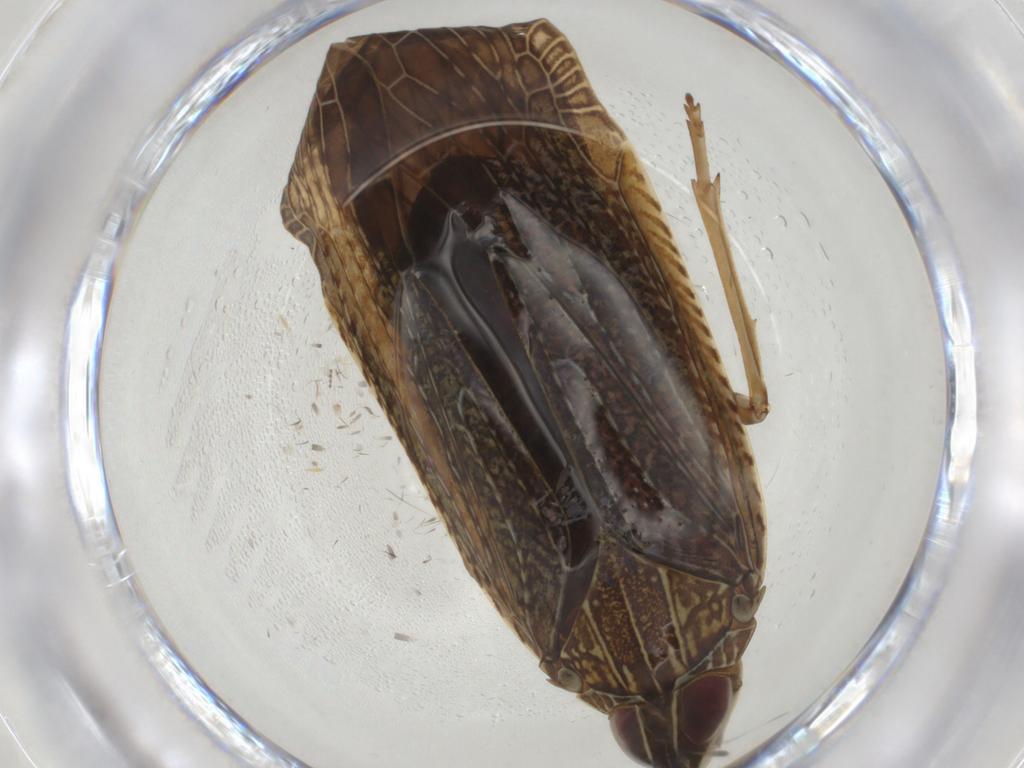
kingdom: Animalia
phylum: Arthropoda
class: Insecta
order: Hemiptera
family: Achilidae
